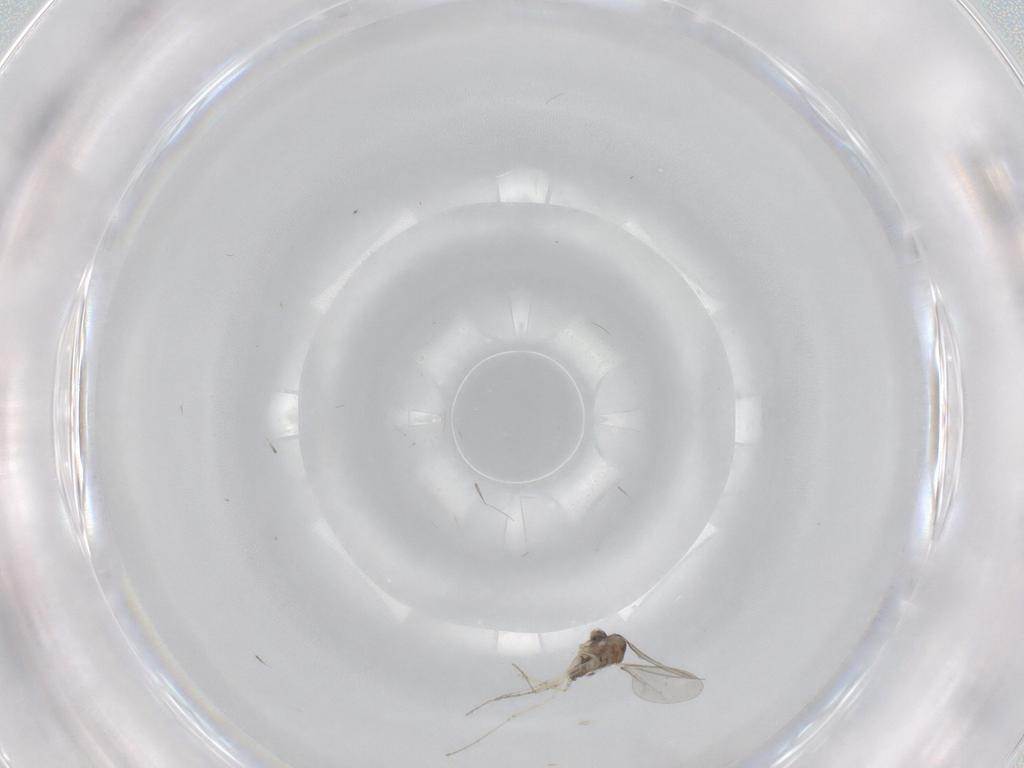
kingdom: Animalia
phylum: Arthropoda
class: Insecta
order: Diptera
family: Cecidomyiidae
